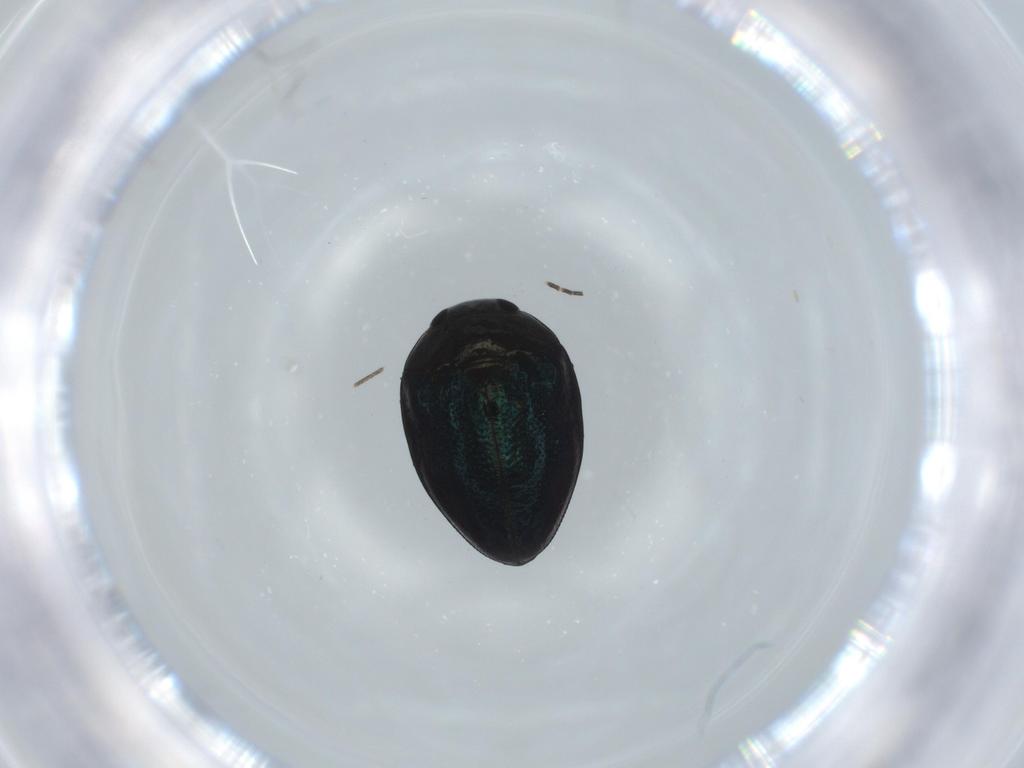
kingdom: Animalia
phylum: Arthropoda
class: Insecta
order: Coleoptera
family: Buprestidae
